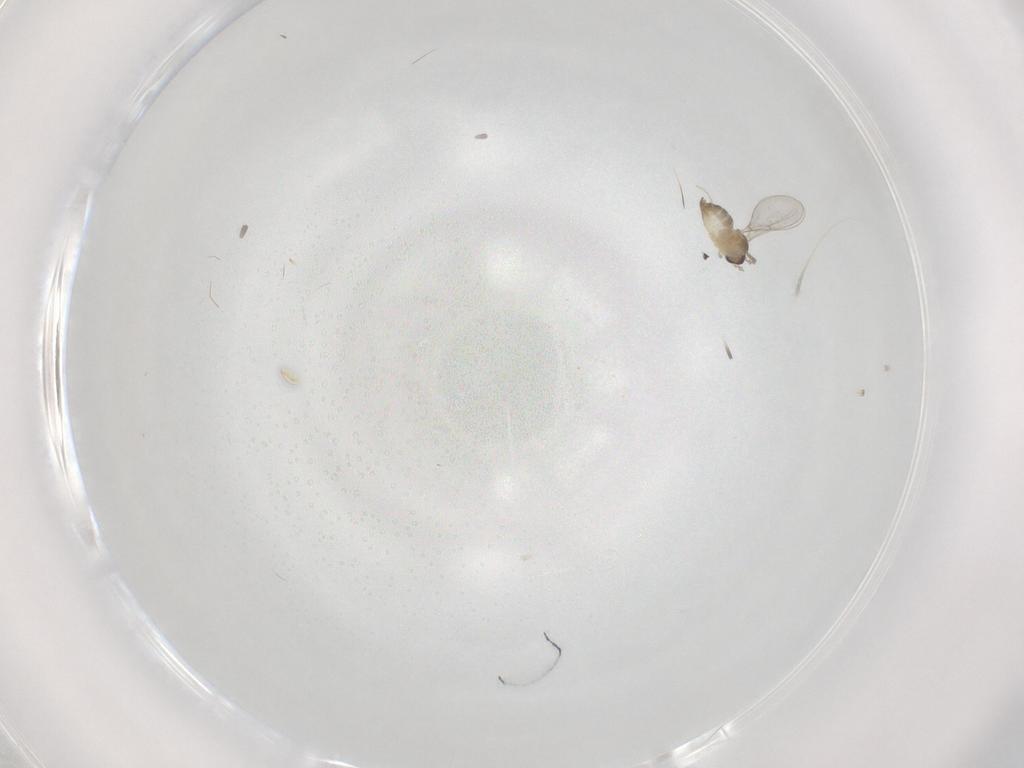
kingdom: Animalia
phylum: Arthropoda
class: Insecta
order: Diptera
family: Cecidomyiidae
